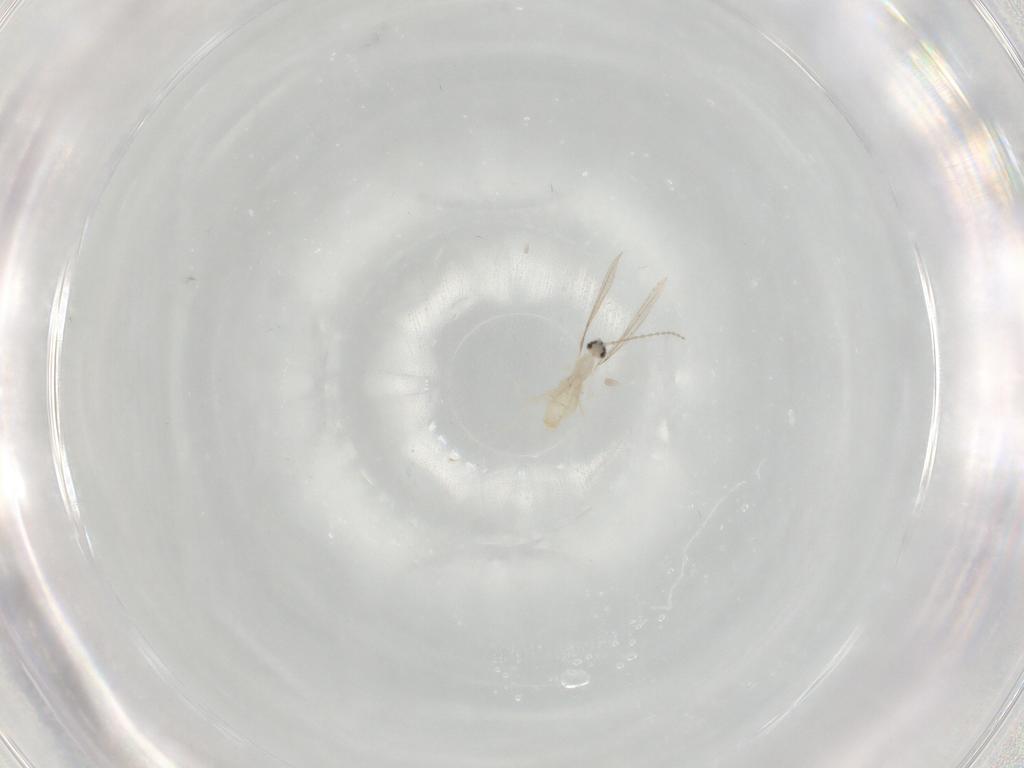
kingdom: Animalia
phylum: Arthropoda
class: Insecta
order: Diptera
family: Cecidomyiidae
